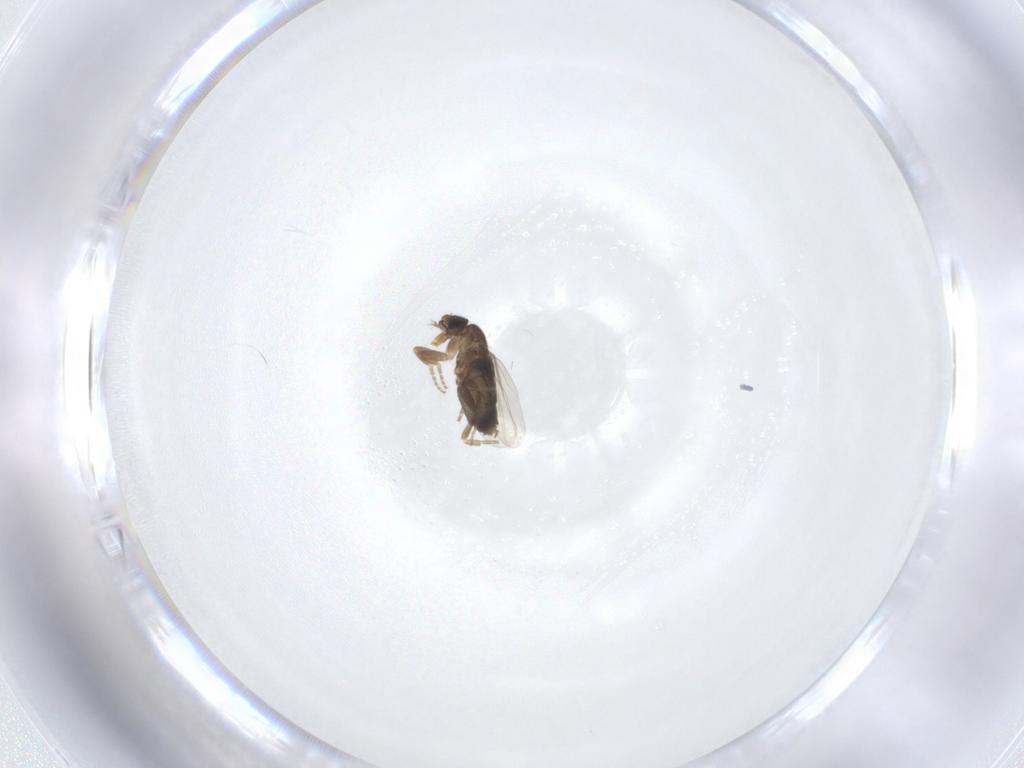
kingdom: Animalia
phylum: Arthropoda
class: Insecta
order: Diptera
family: Phoridae
